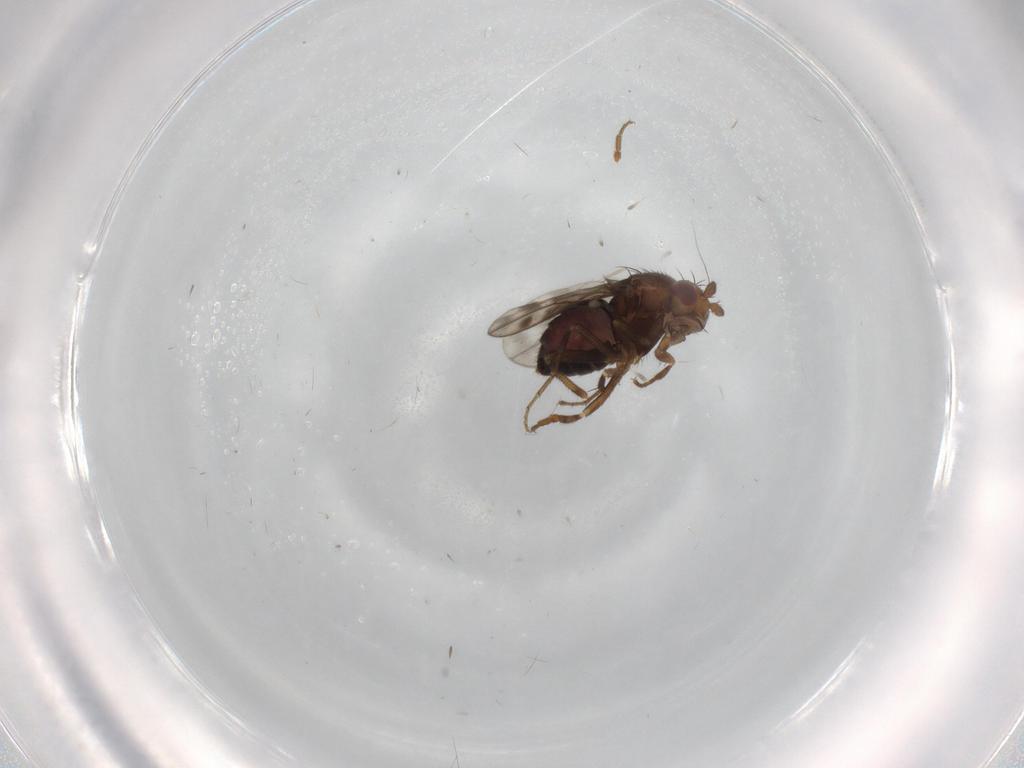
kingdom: Animalia
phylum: Arthropoda
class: Insecta
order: Diptera
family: Sphaeroceridae
